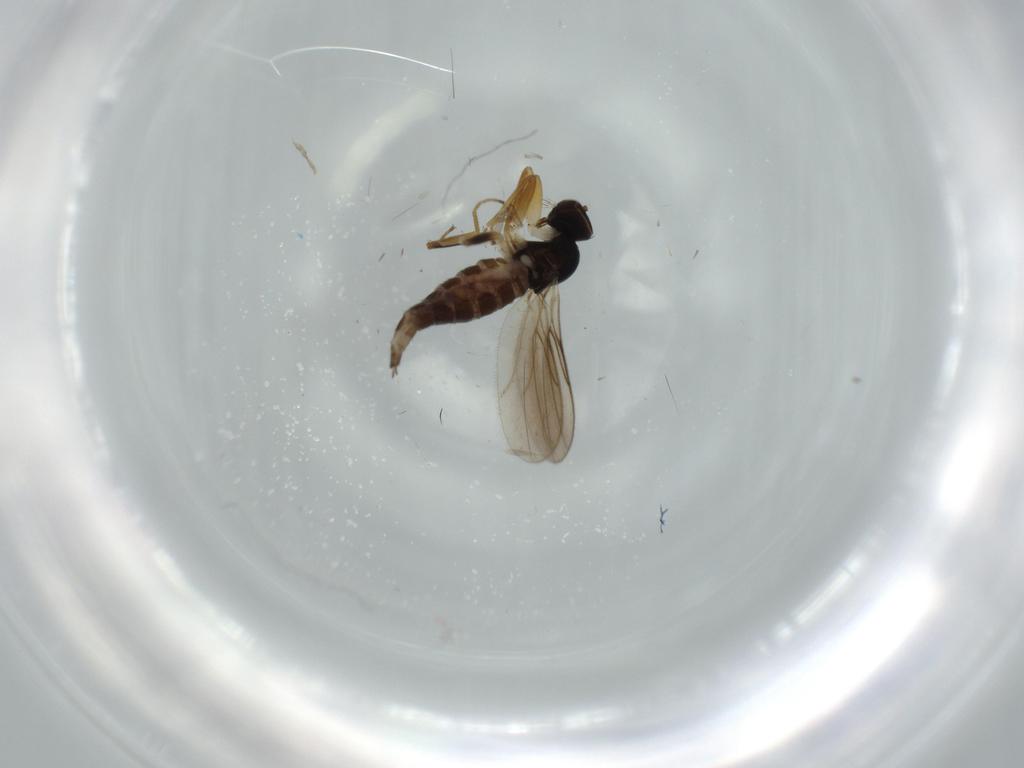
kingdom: Animalia
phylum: Arthropoda
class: Insecta
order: Diptera
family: Hybotidae
